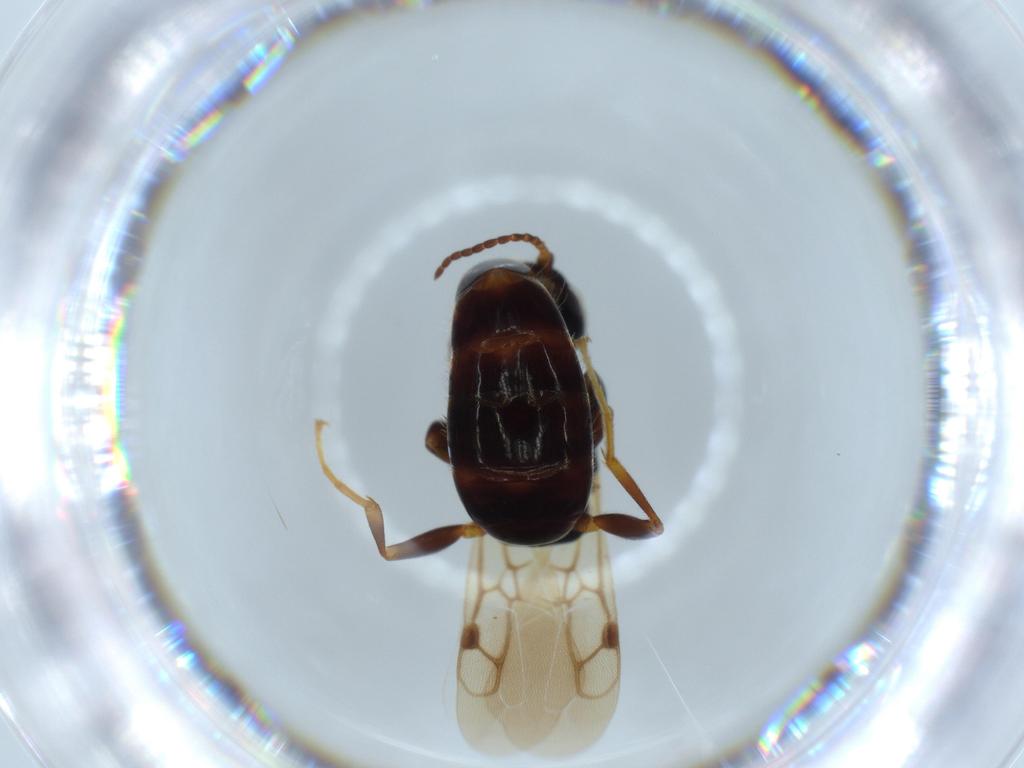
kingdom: Animalia
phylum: Arthropoda
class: Insecta
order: Hymenoptera
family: Bethylidae
